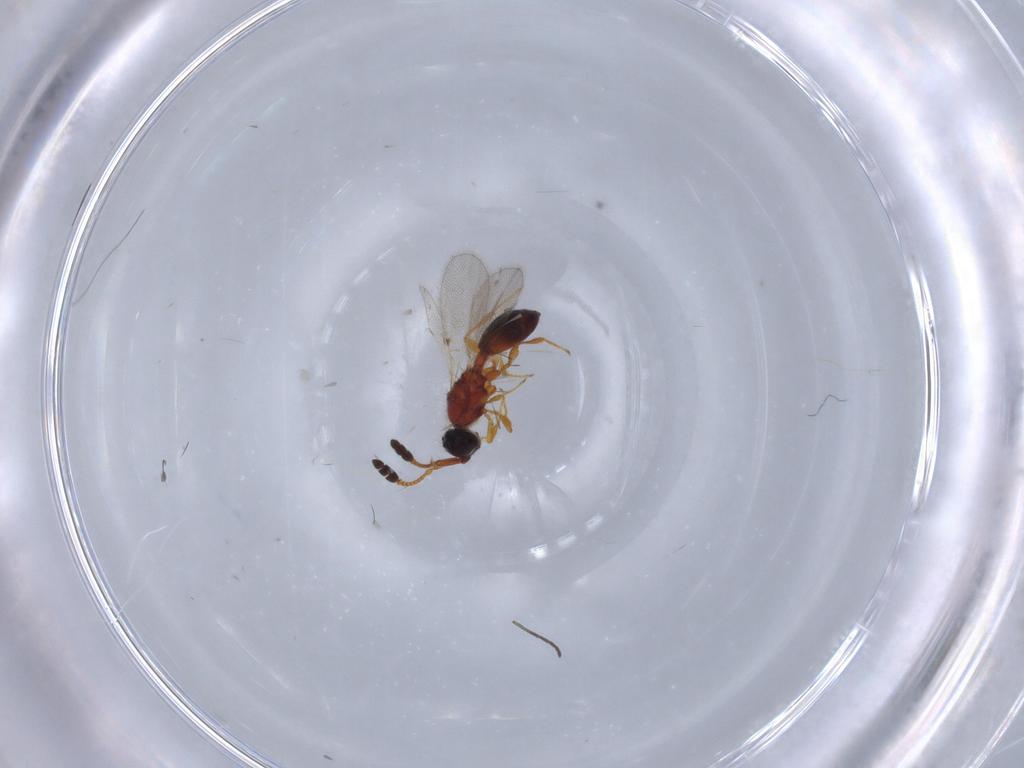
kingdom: Animalia
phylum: Arthropoda
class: Insecta
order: Hymenoptera
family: Diapriidae
